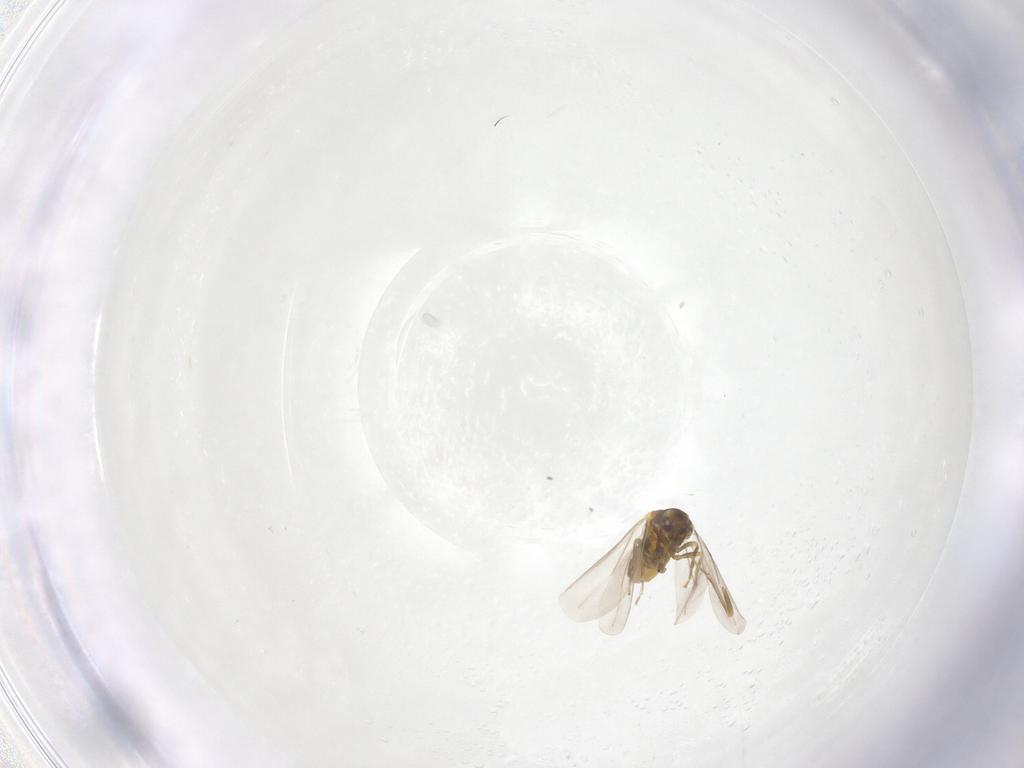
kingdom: Animalia
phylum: Arthropoda
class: Insecta
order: Hemiptera
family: Aleyrodidae
